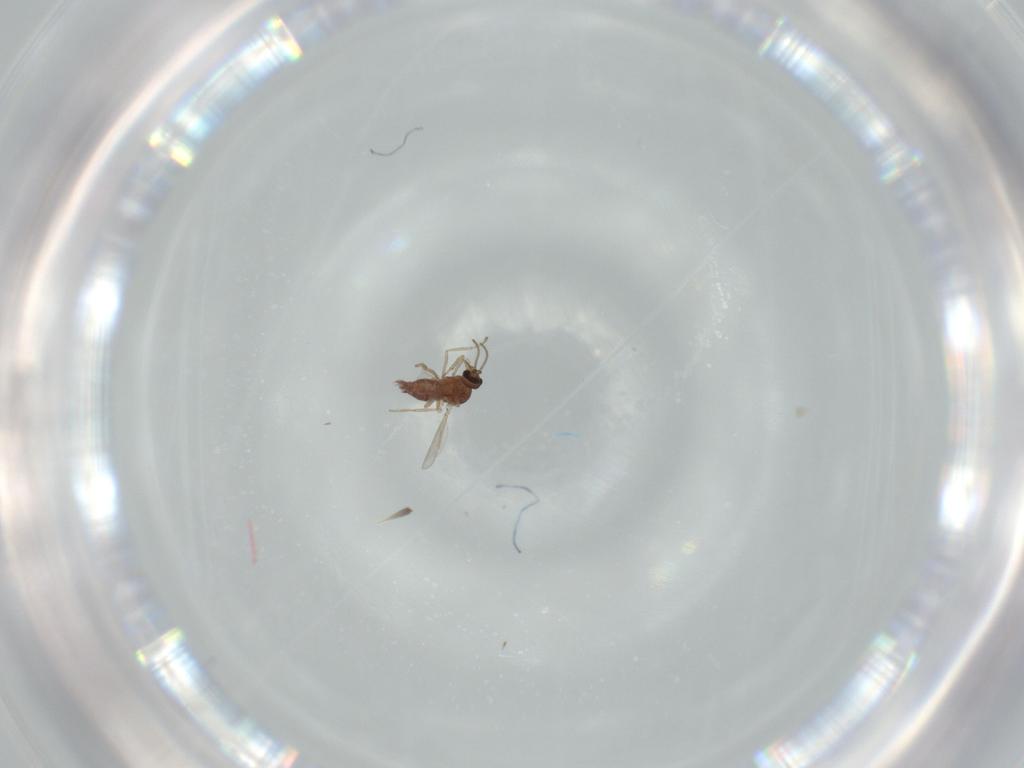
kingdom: Animalia
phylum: Arthropoda
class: Insecta
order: Diptera
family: Ceratopogonidae
